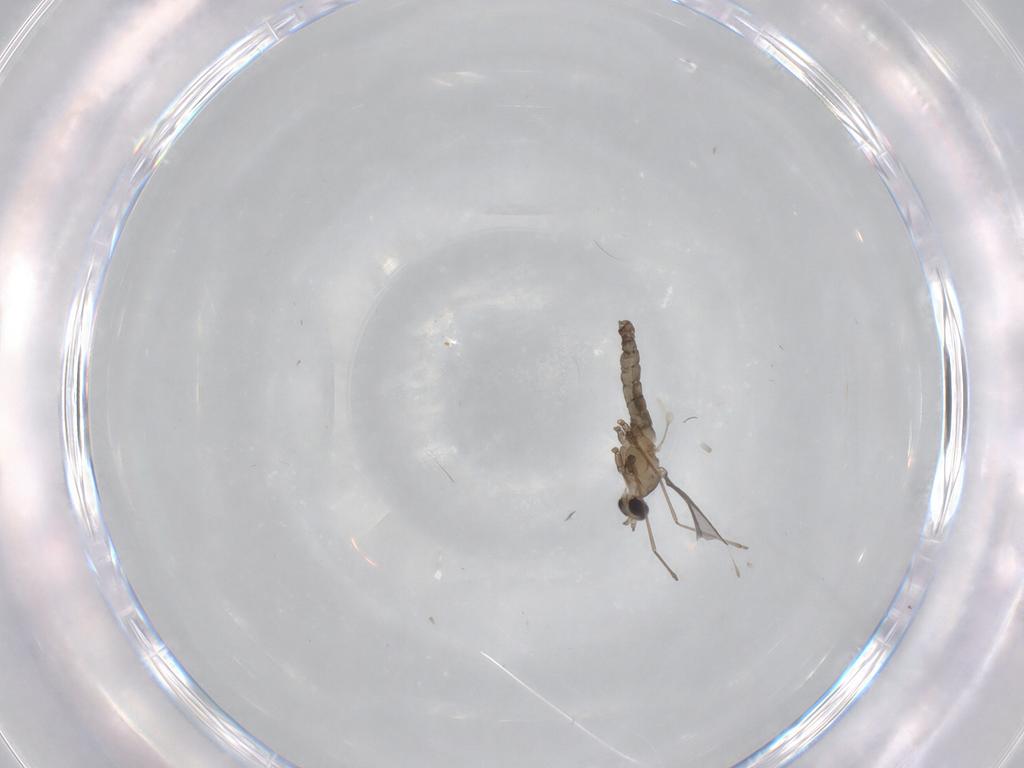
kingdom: Animalia
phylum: Arthropoda
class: Insecta
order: Diptera
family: Cecidomyiidae
